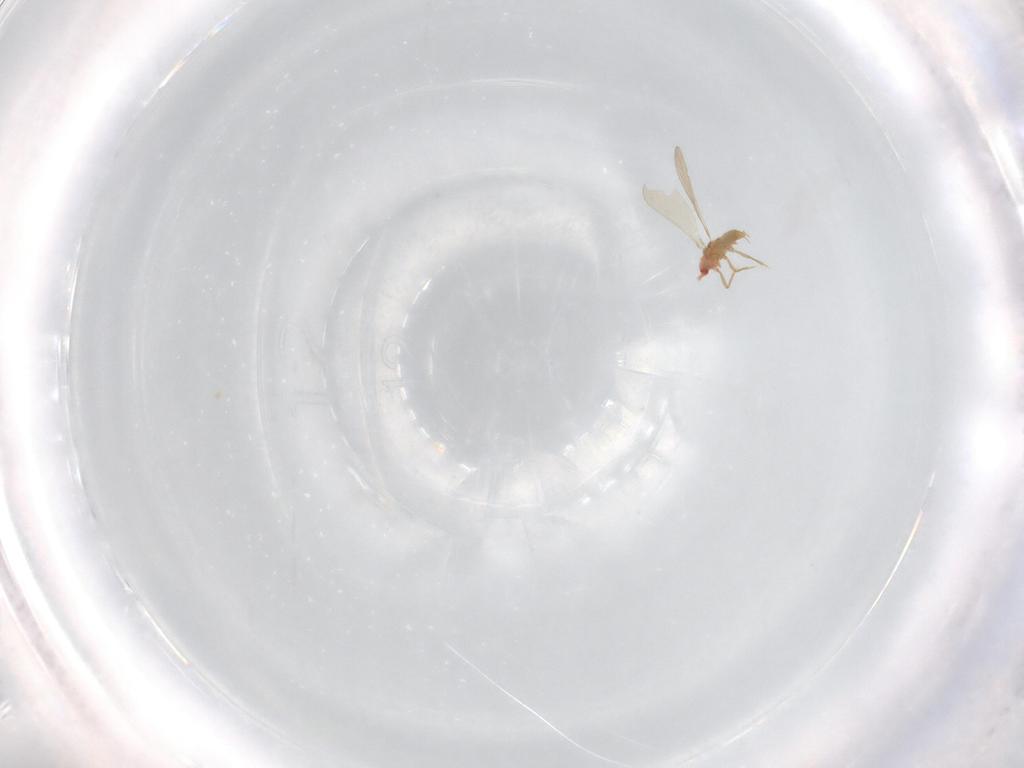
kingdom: Animalia
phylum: Arthropoda
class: Insecta
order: Hemiptera
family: Coccoidea_incertae_sedis
